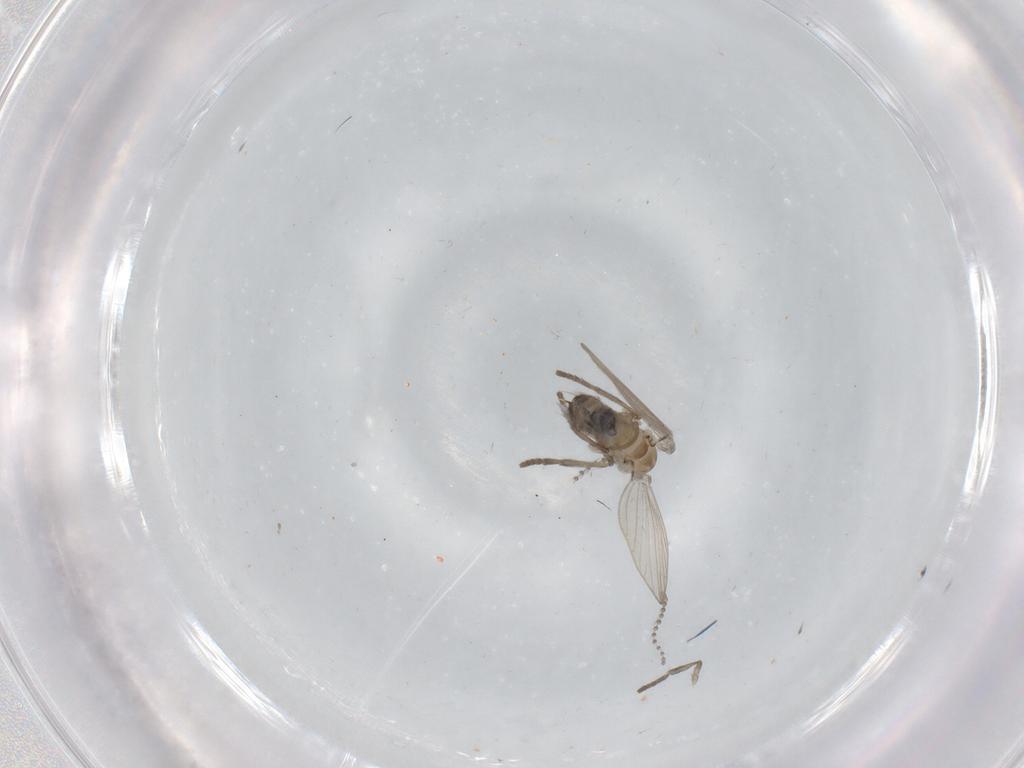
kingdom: Animalia
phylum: Arthropoda
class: Insecta
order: Diptera
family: Psychodidae
